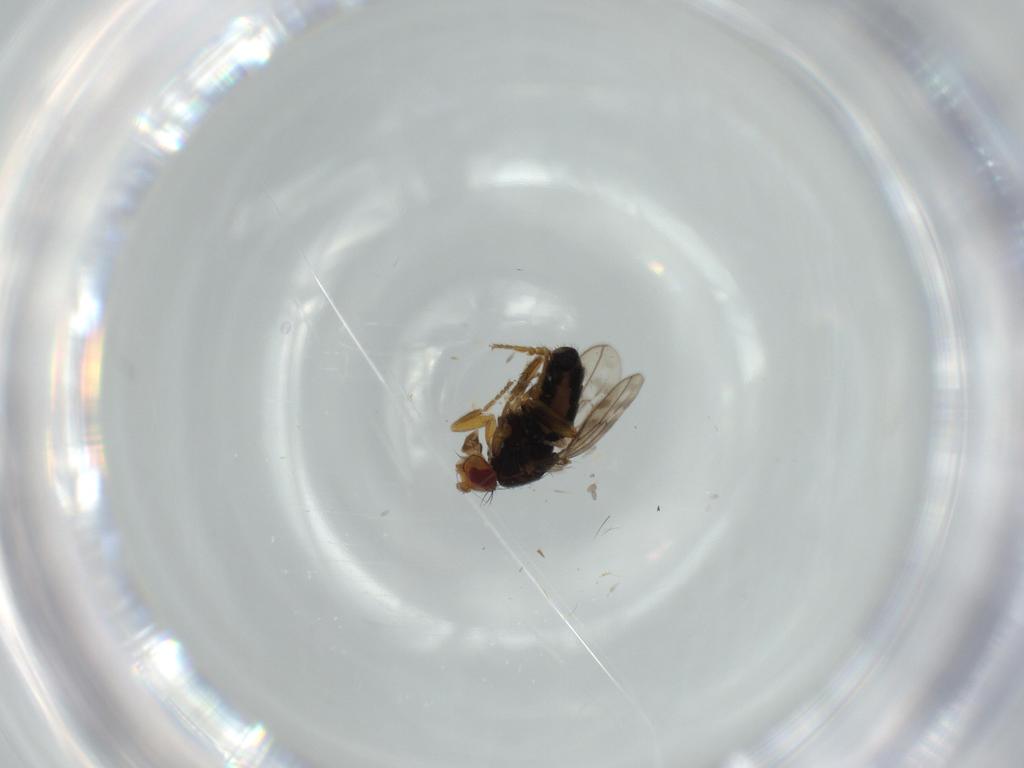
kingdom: Animalia
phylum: Arthropoda
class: Insecta
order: Diptera
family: Sphaeroceridae
